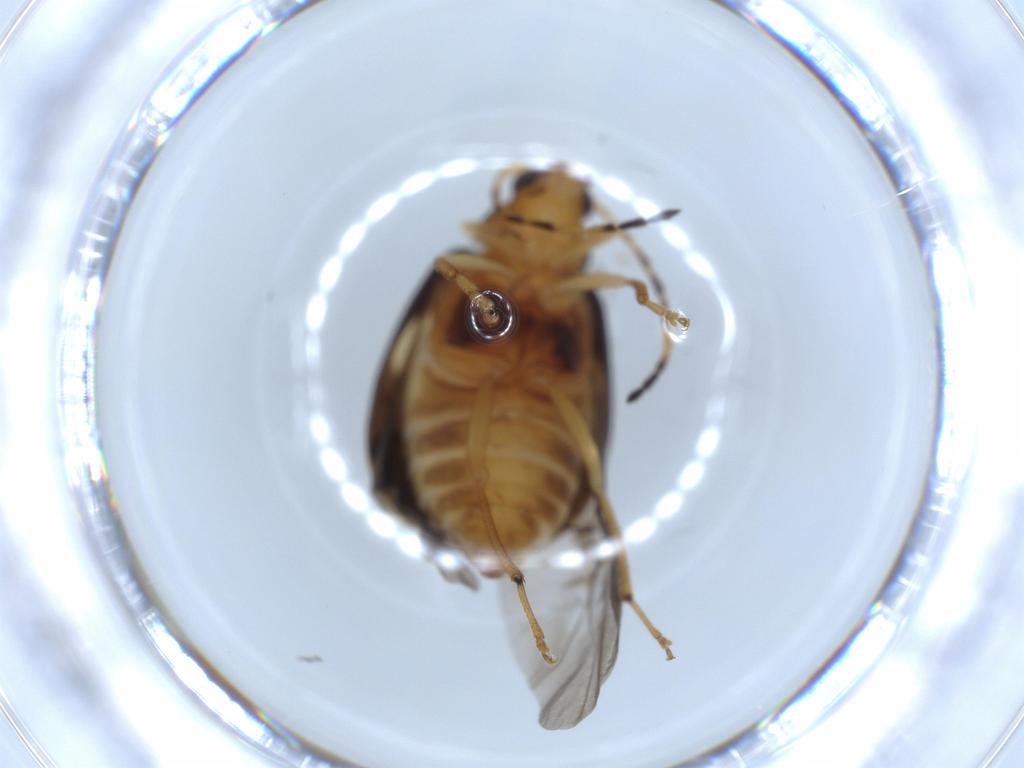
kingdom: Animalia
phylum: Arthropoda
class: Insecta
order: Coleoptera
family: Chrysomelidae
